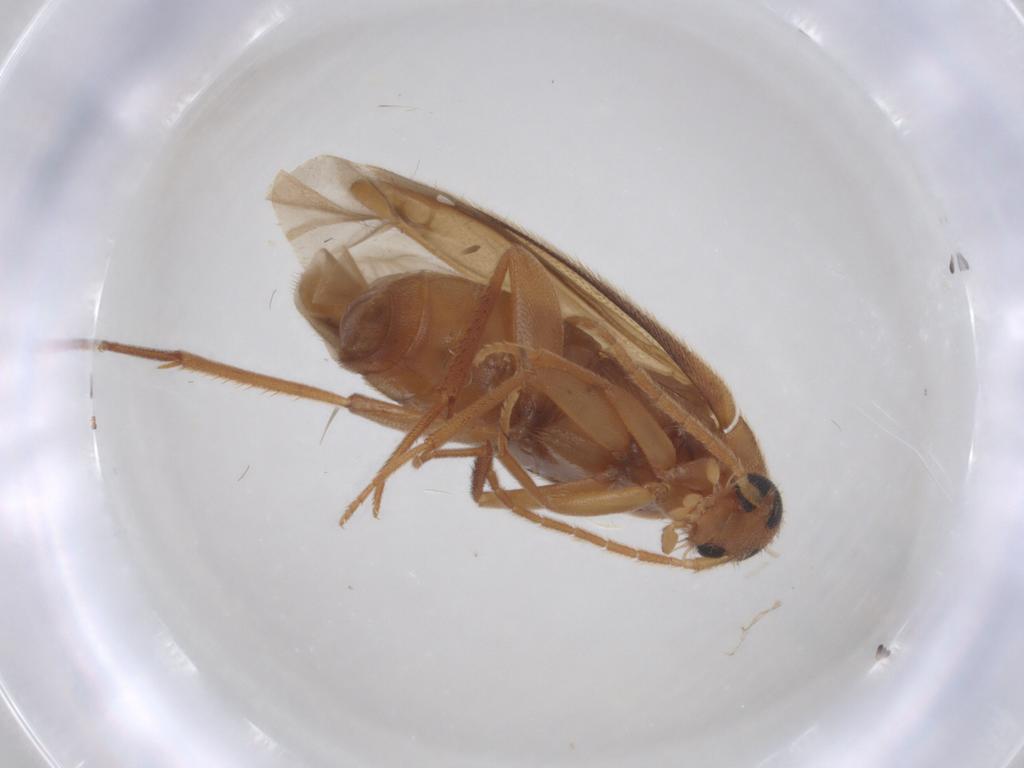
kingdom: Animalia
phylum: Arthropoda
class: Insecta
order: Coleoptera
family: Scraptiidae
